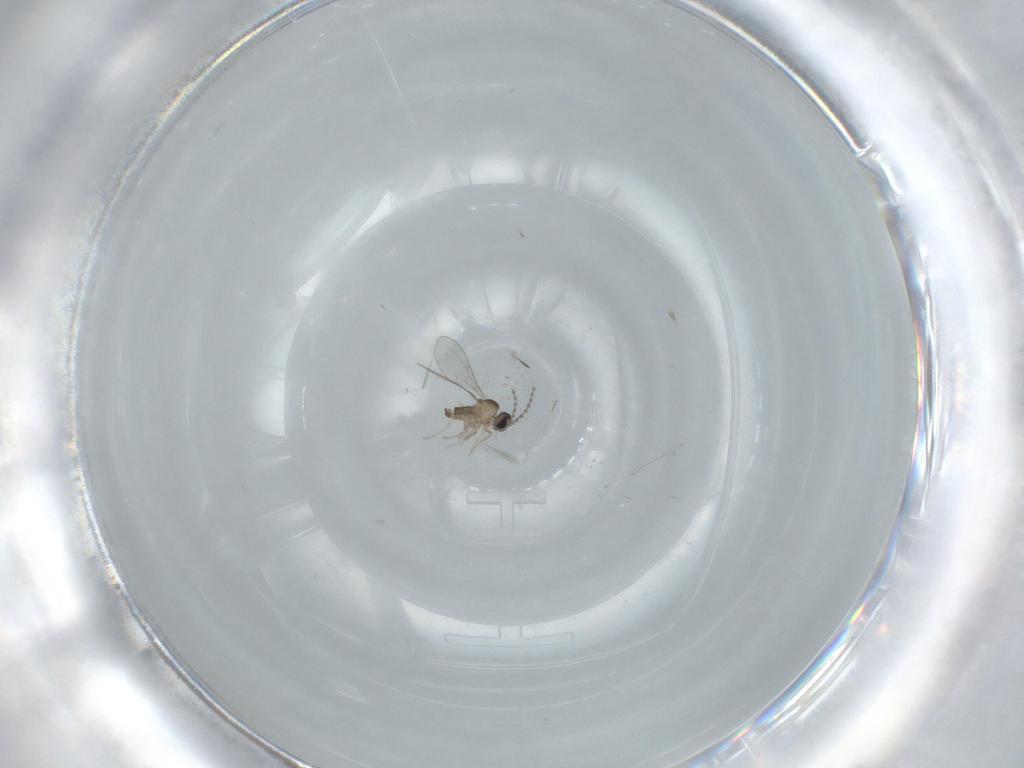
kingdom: Animalia
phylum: Arthropoda
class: Insecta
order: Diptera
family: Cecidomyiidae
